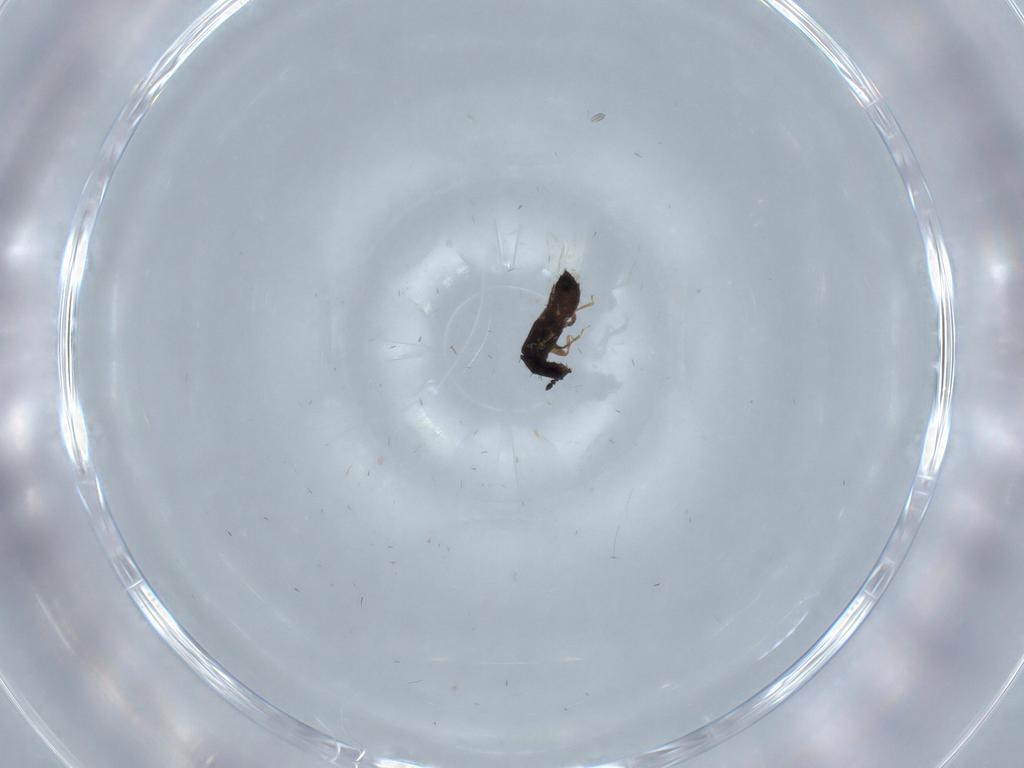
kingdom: Animalia
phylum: Arthropoda
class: Insecta
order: Coleoptera
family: Staphylinidae
